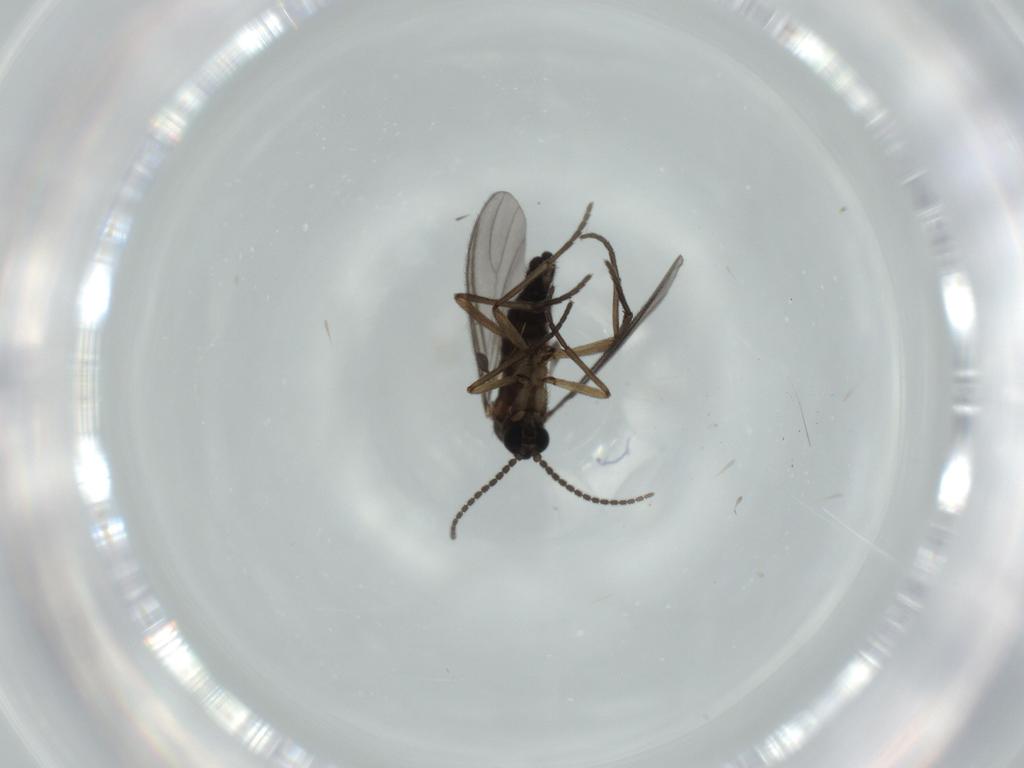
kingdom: Animalia
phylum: Arthropoda
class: Insecta
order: Diptera
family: Sciaridae
